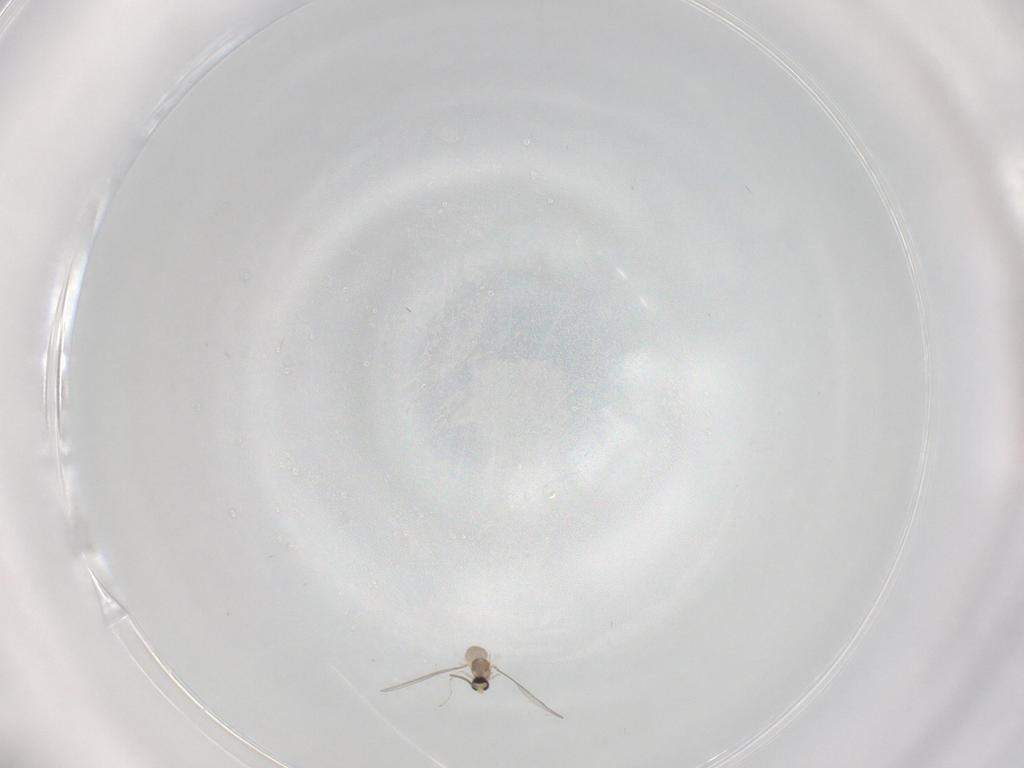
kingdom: Animalia
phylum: Arthropoda
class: Insecta
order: Diptera
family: Cecidomyiidae
